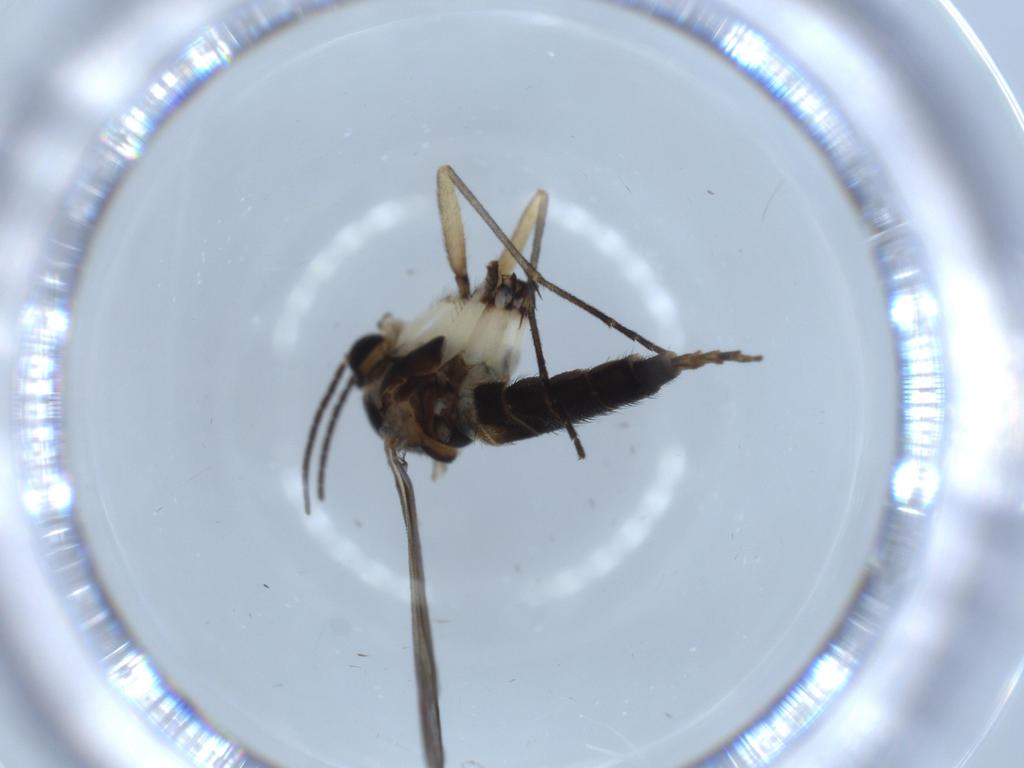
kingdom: Animalia
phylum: Arthropoda
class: Insecta
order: Diptera
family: Sciaridae
